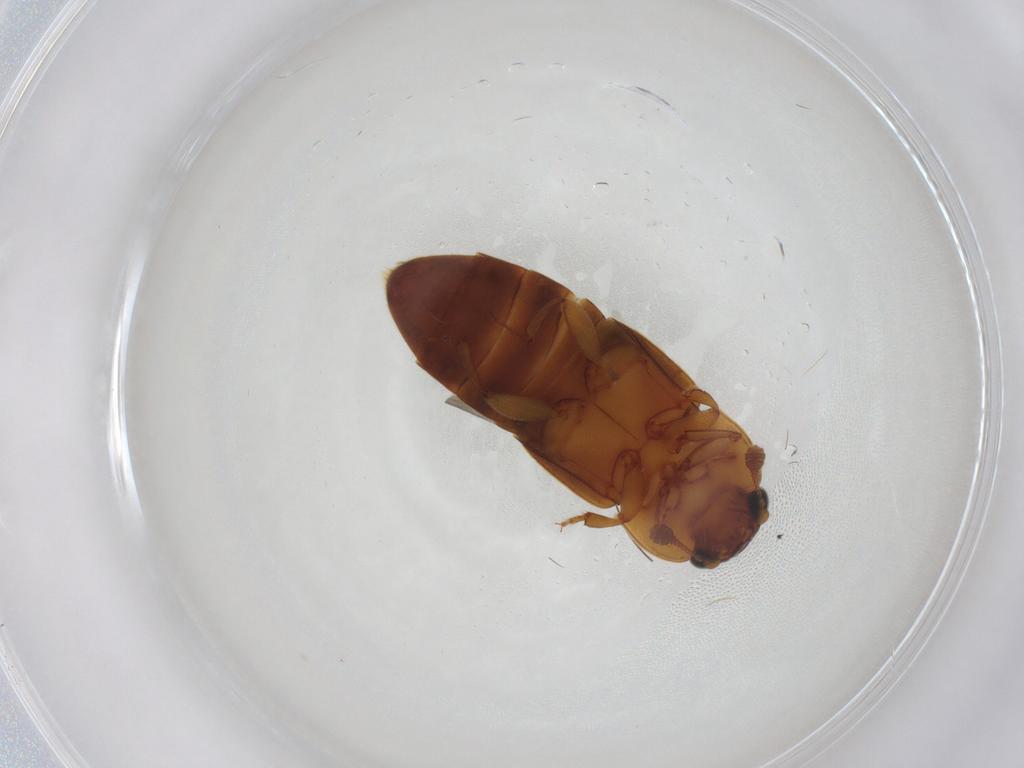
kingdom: Animalia
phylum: Arthropoda
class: Insecta
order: Coleoptera
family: Nitidulidae
